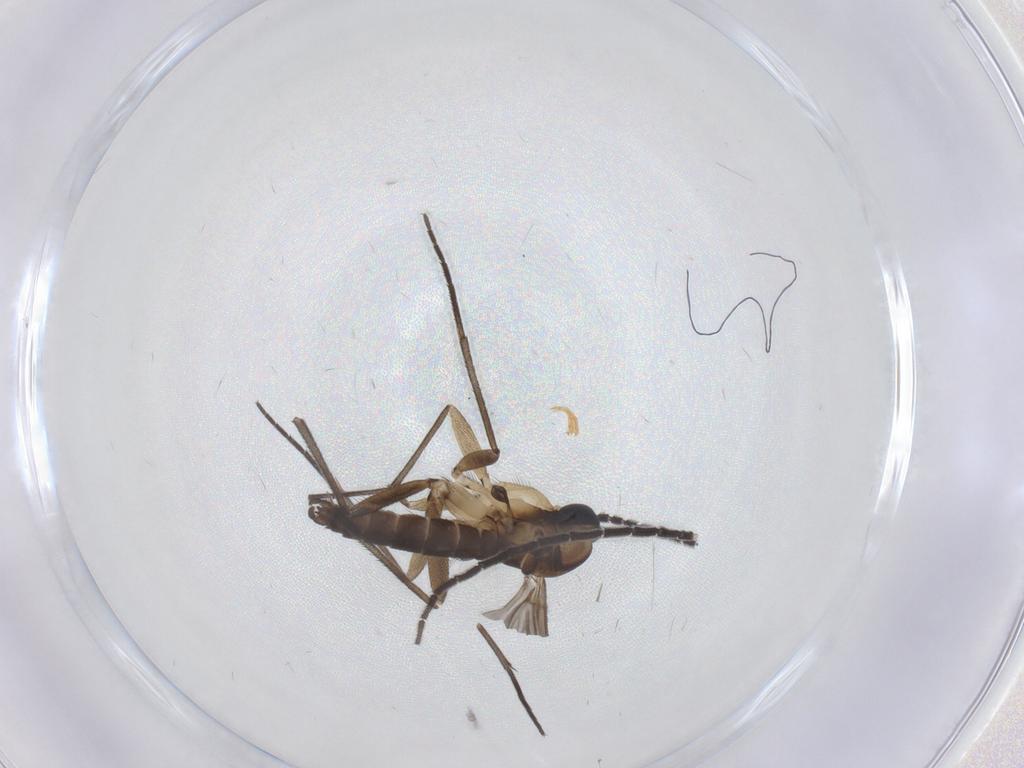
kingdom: Animalia
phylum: Arthropoda
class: Insecta
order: Diptera
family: Sciaridae
